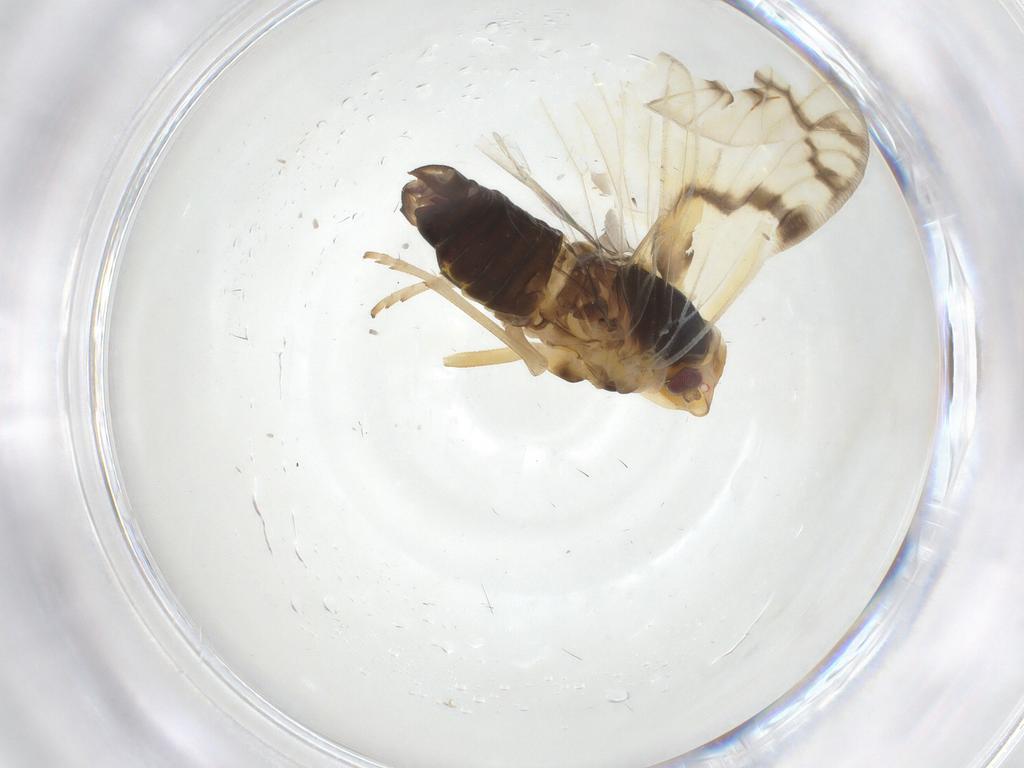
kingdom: Animalia
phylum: Arthropoda
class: Insecta
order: Hemiptera
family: Cixiidae
